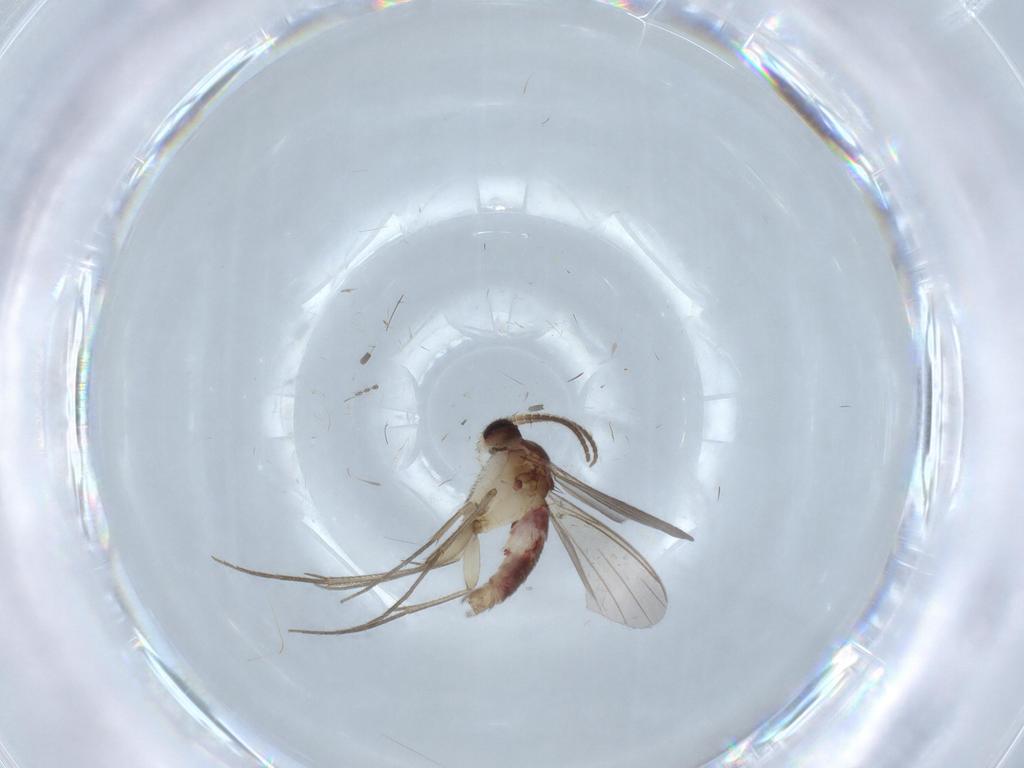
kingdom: Animalia
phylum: Arthropoda
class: Insecta
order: Diptera
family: Mycetophilidae
